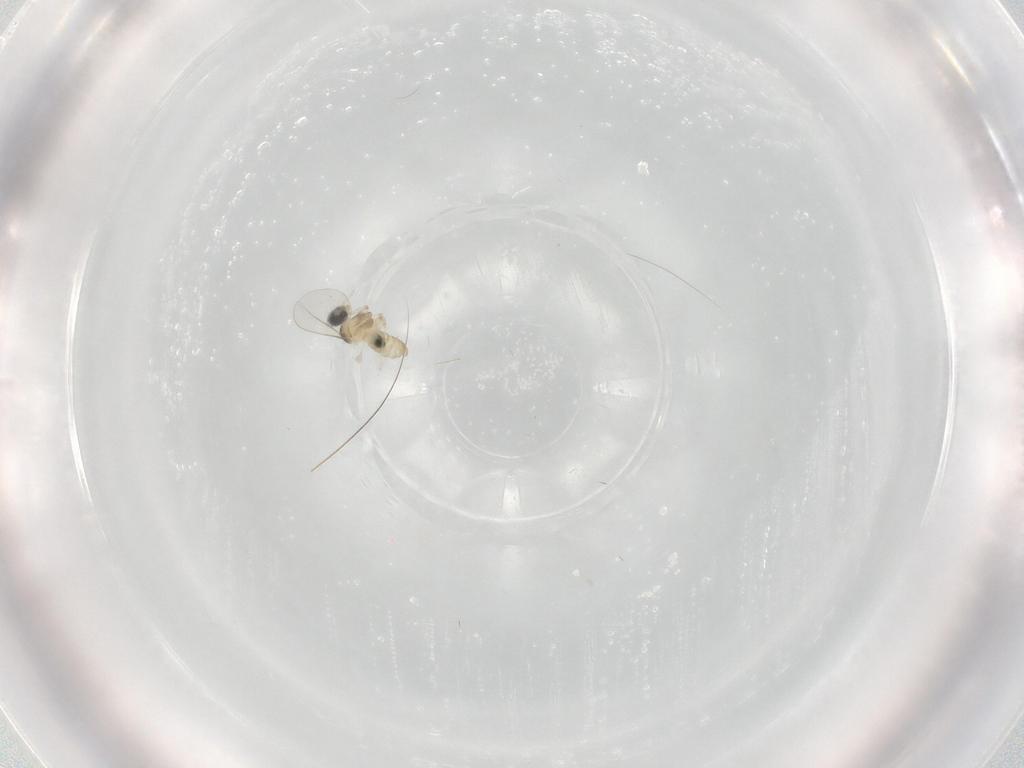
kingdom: Animalia
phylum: Arthropoda
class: Insecta
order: Diptera
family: Cecidomyiidae
